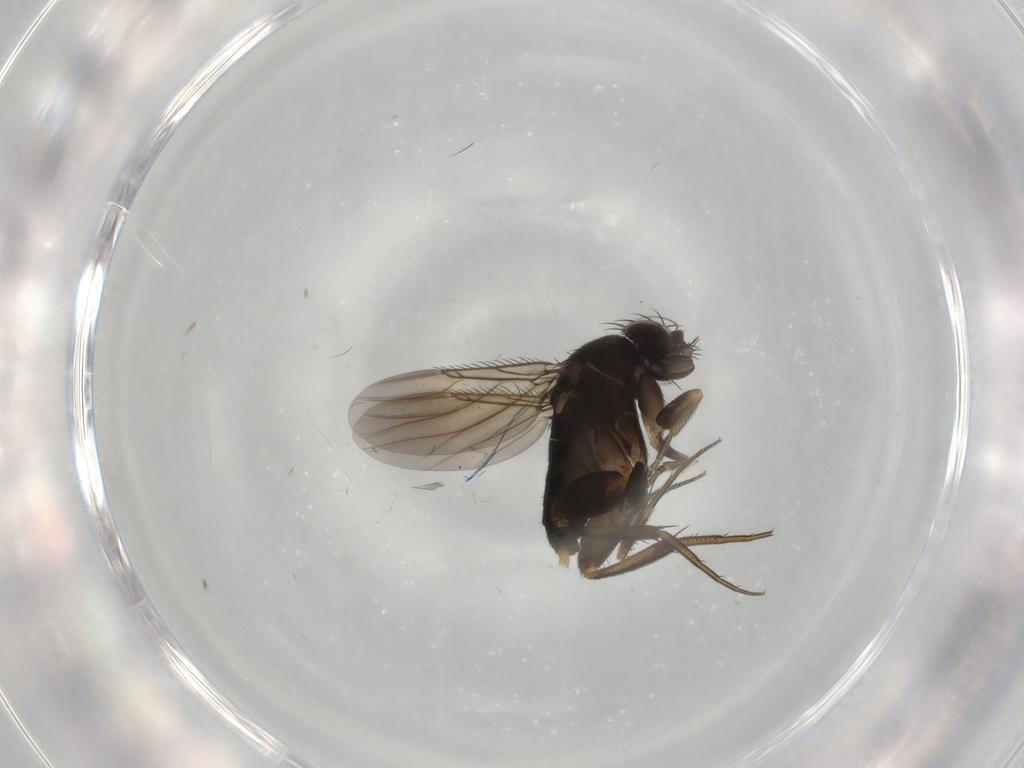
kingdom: Animalia
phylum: Arthropoda
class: Insecta
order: Diptera
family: Phoridae
